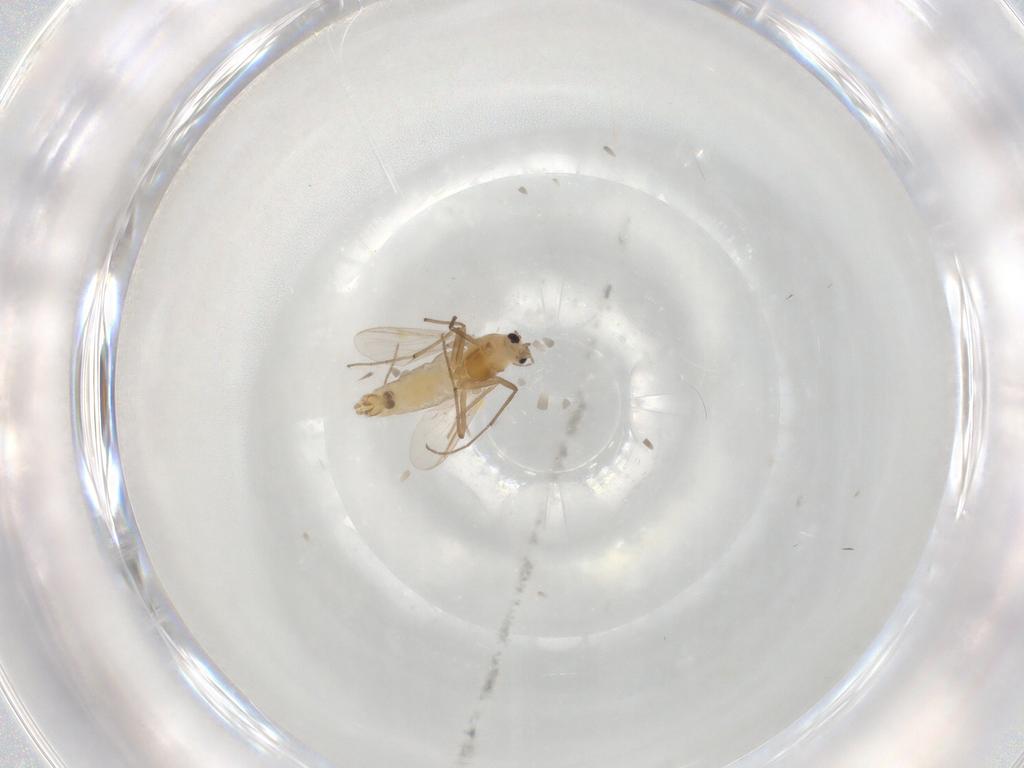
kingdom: Animalia
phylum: Arthropoda
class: Insecta
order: Diptera
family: Chironomidae
